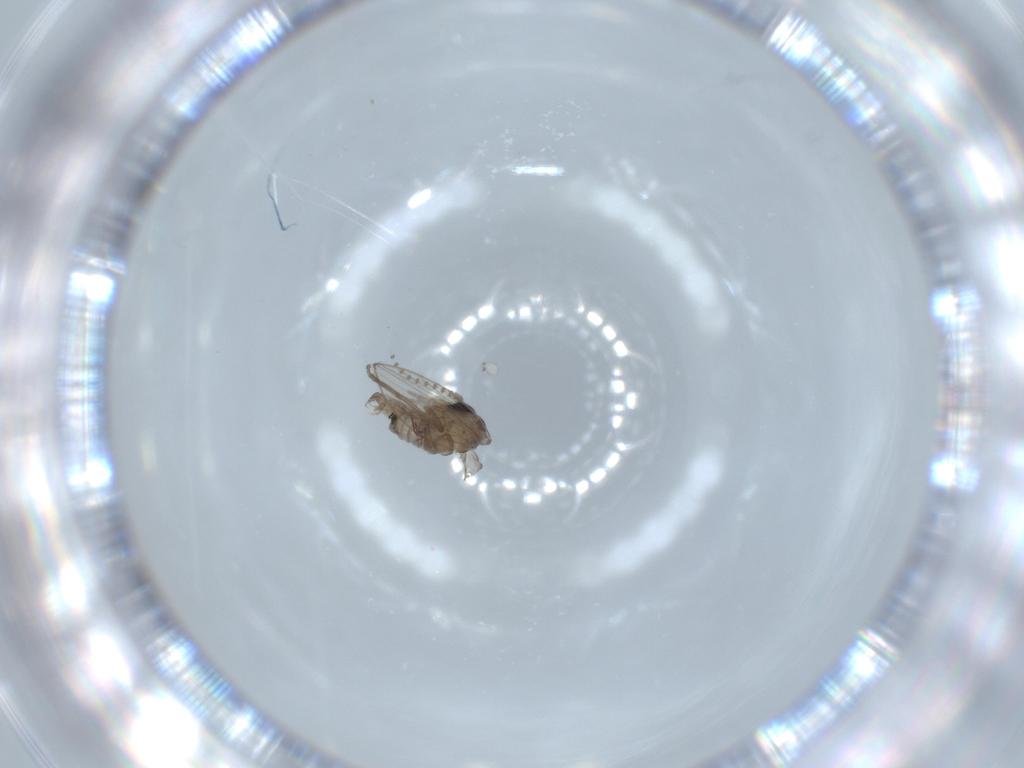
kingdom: Animalia
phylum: Arthropoda
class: Insecta
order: Diptera
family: Psychodidae
